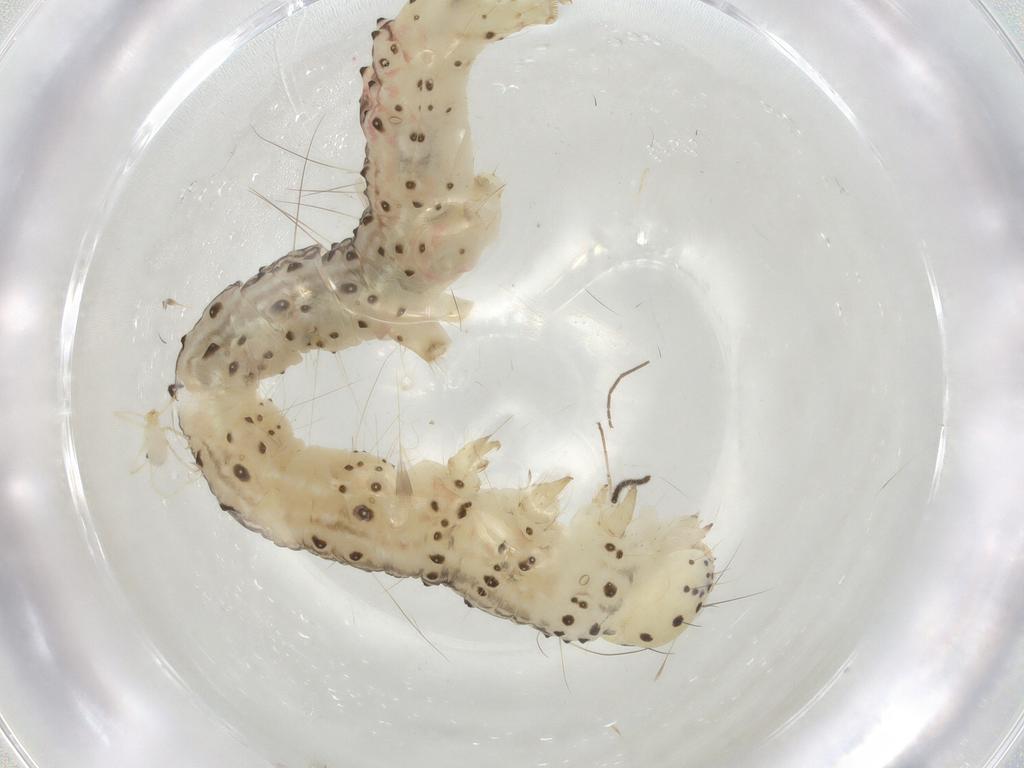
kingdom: Animalia
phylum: Arthropoda
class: Insecta
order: Lepidoptera
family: Noctuidae
